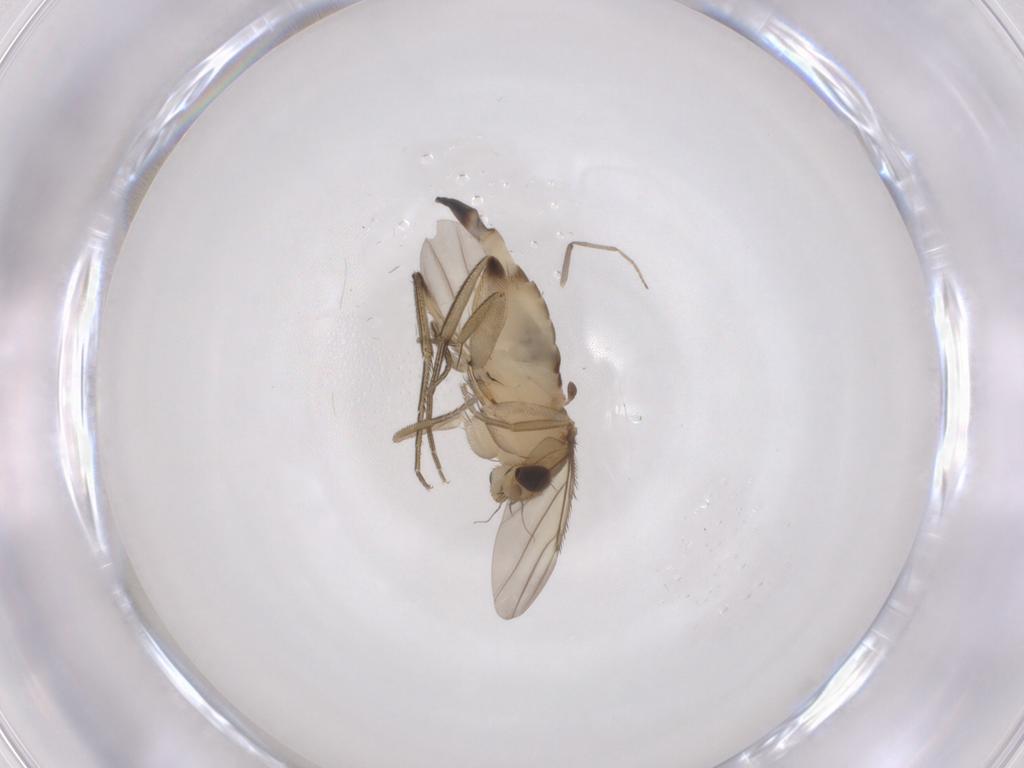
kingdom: Animalia
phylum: Arthropoda
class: Insecta
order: Diptera
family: Phoridae
